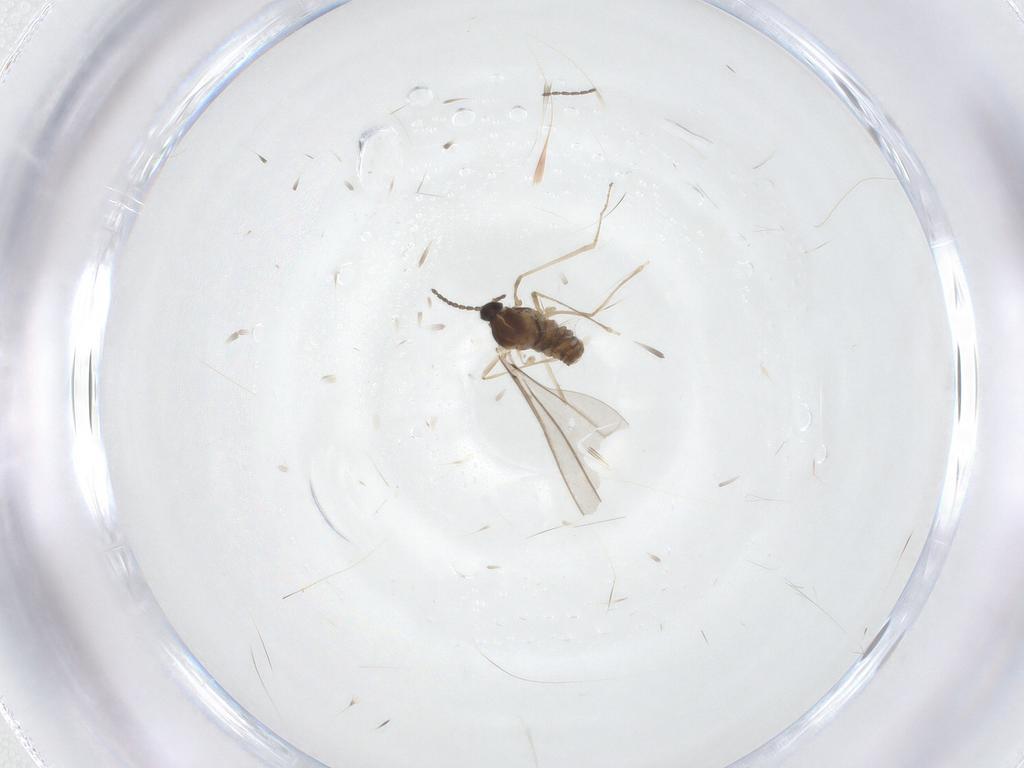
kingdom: Animalia
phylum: Arthropoda
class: Insecta
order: Diptera
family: Cecidomyiidae
